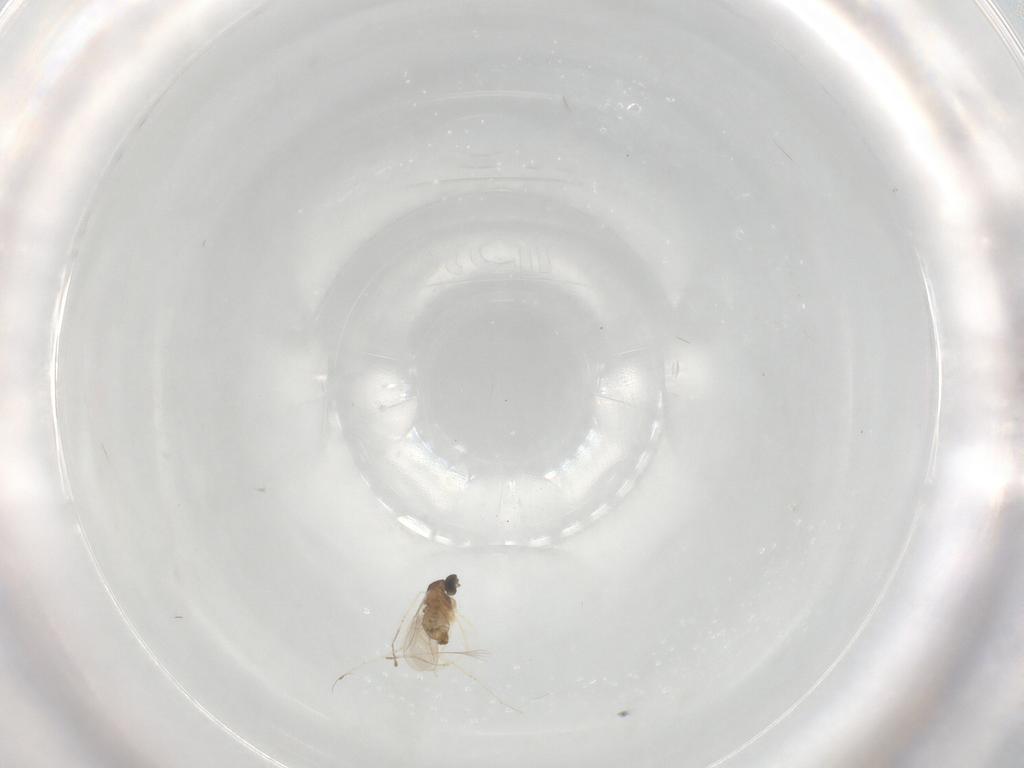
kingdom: Animalia
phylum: Arthropoda
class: Insecta
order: Diptera
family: Cecidomyiidae
